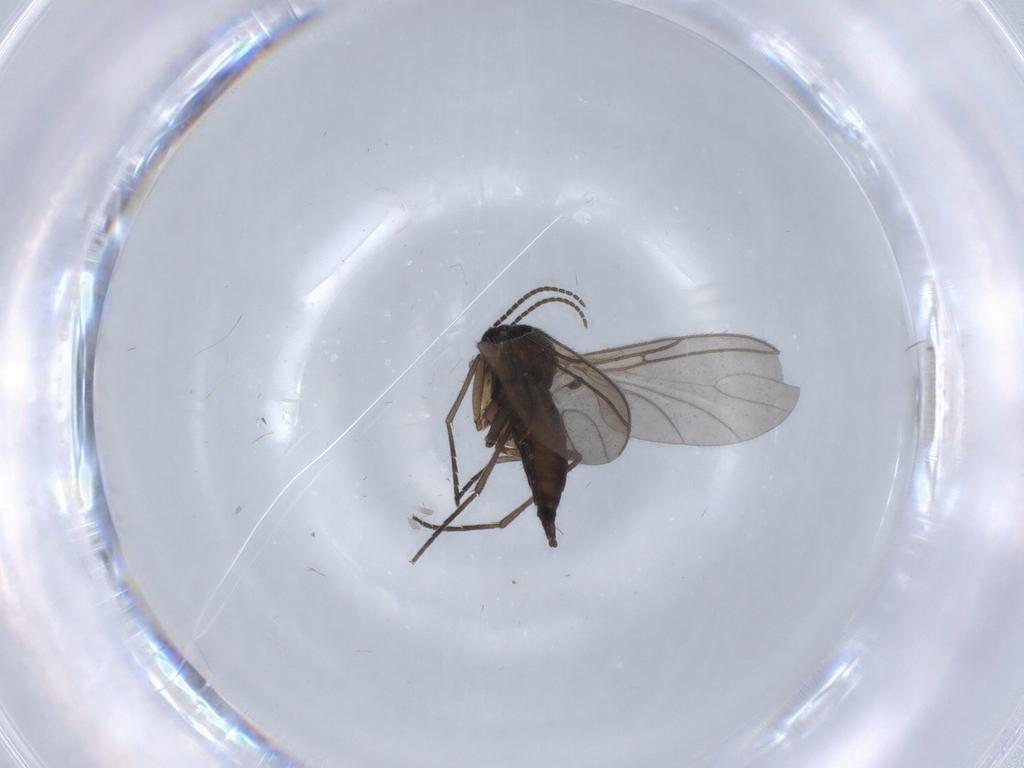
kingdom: Animalia
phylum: Arthropoda
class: Insecta
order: Diptera
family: Sciaridae
